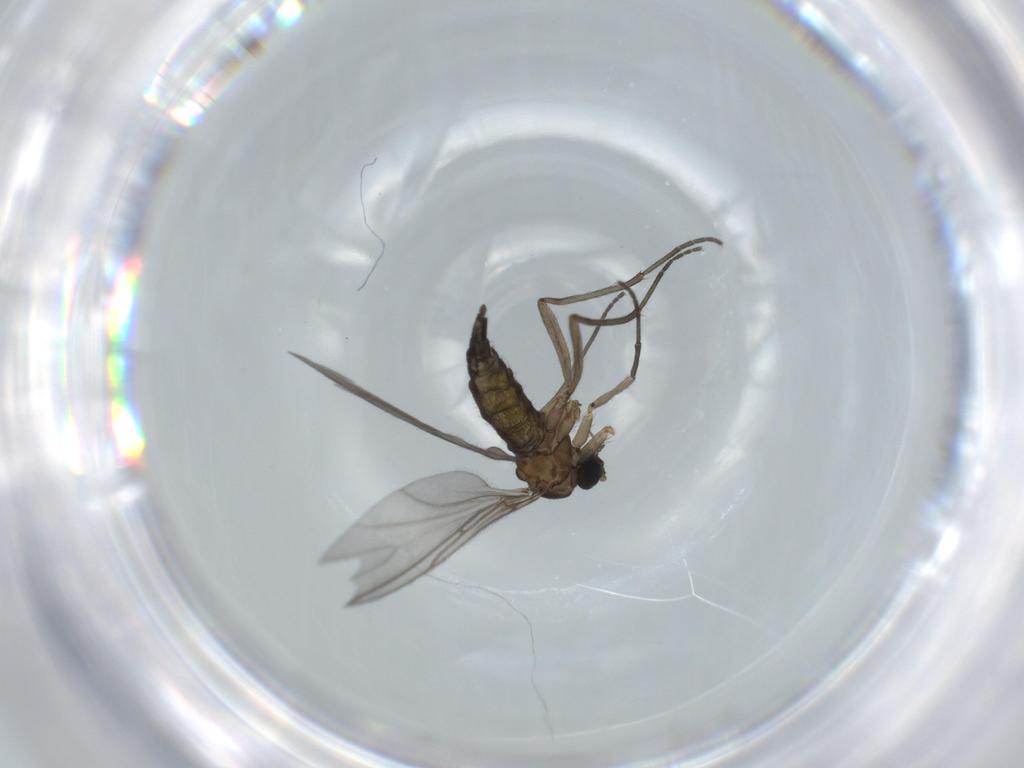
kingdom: Animalia
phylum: Arthropoda
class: Insecta
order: Diptera
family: Sciaridae
